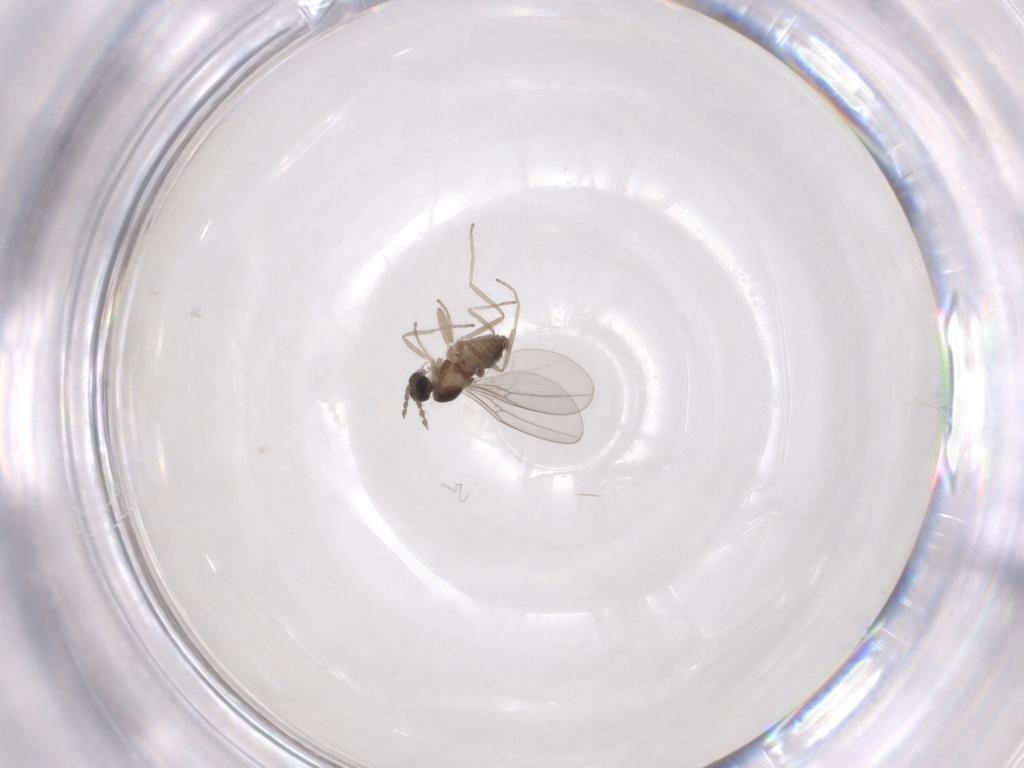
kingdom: Animalia
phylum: Arthropoda
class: Insecta
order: Diptera
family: Cecidomyiidae
